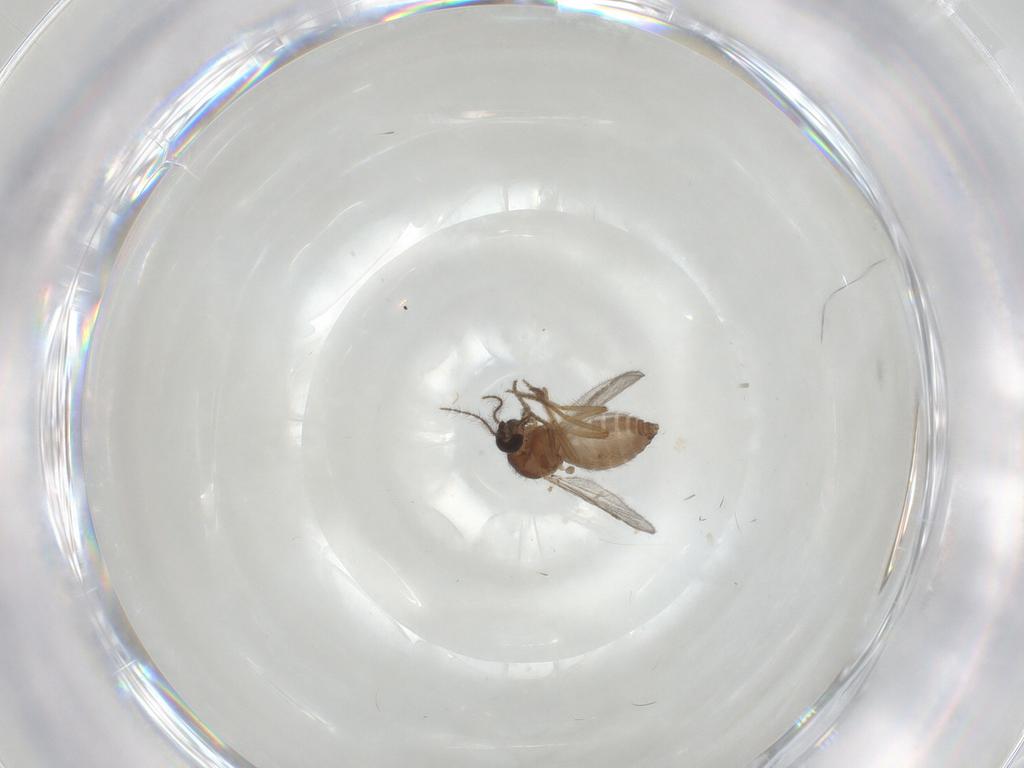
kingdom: Animalia
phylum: Arthropoda
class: Insecta
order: Diptera
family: Ceratopogonidae
